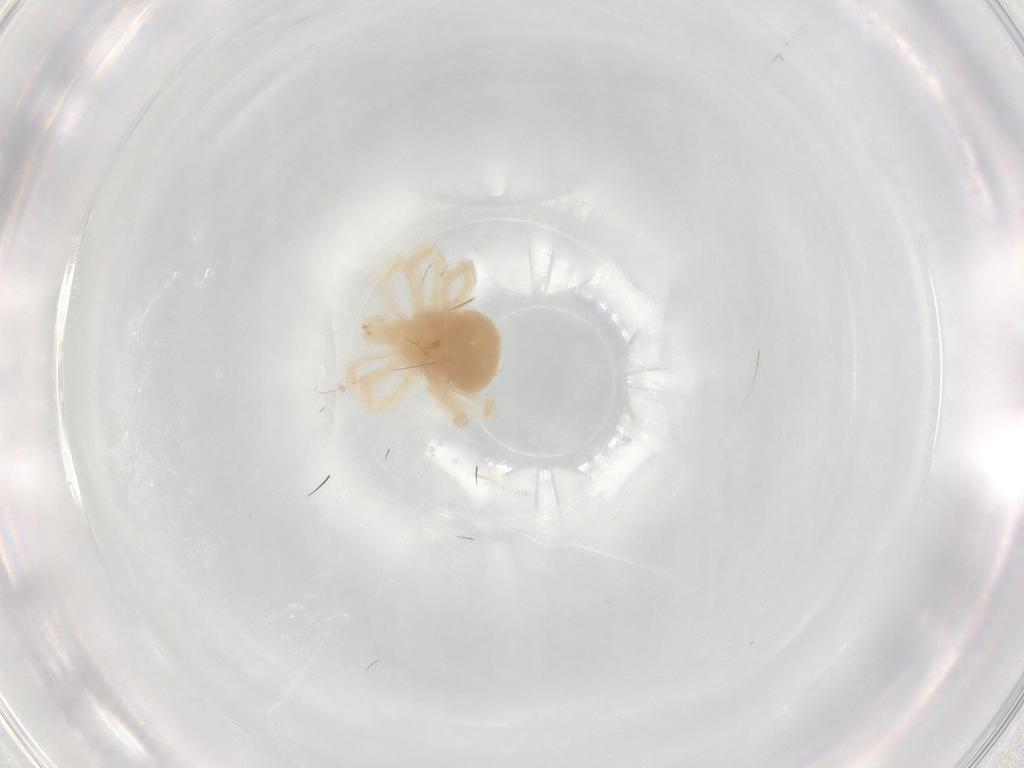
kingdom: Animalia
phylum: Arthropoda
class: Arachnida
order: Trombidiformes
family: Anystidae
